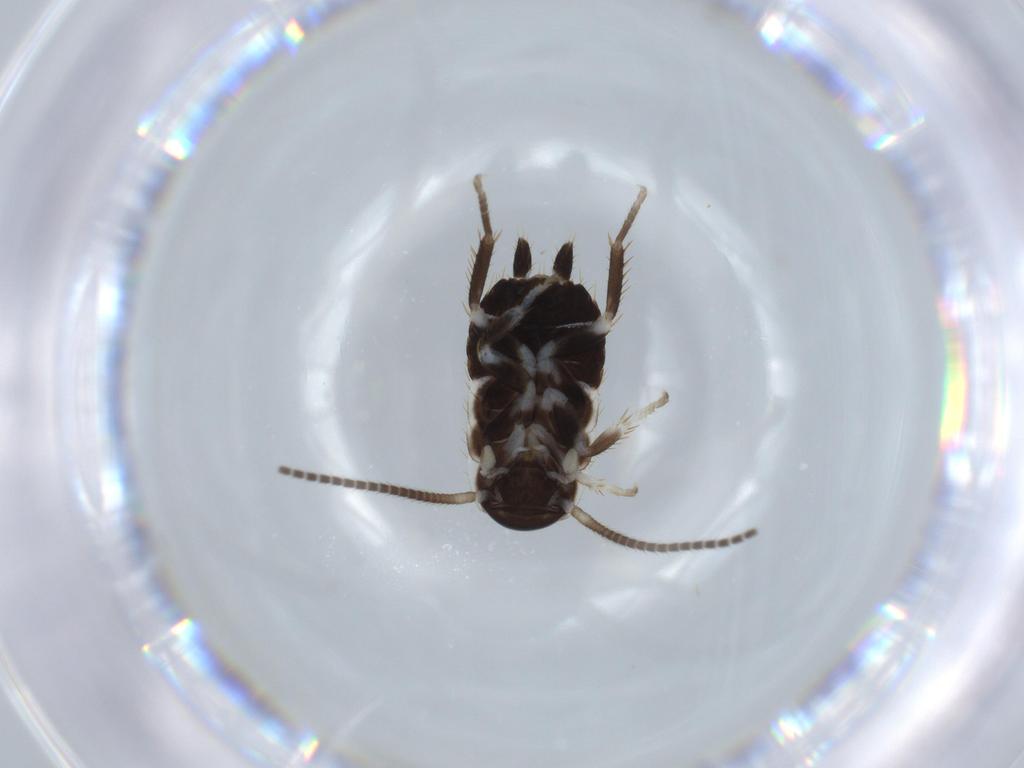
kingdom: Animalia
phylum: Arthropoda
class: Insecta
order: Blattodea
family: Ectobiidae
